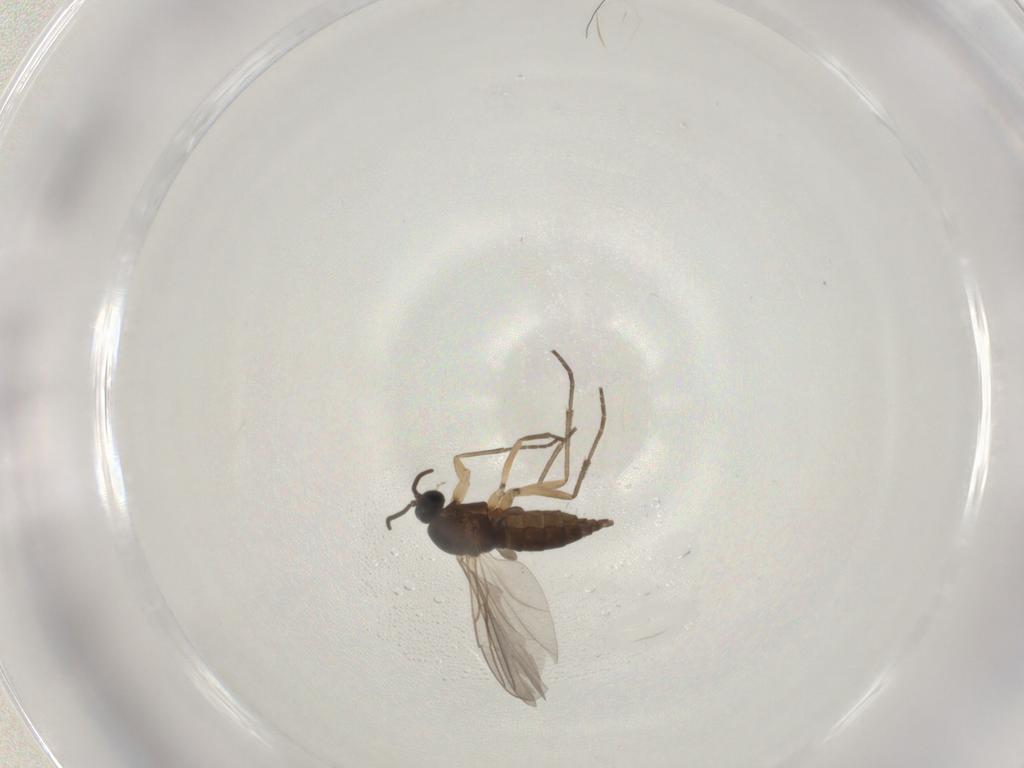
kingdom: Animalia
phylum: Arthropoda
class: Insecta
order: Diptera
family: Sciaridae
